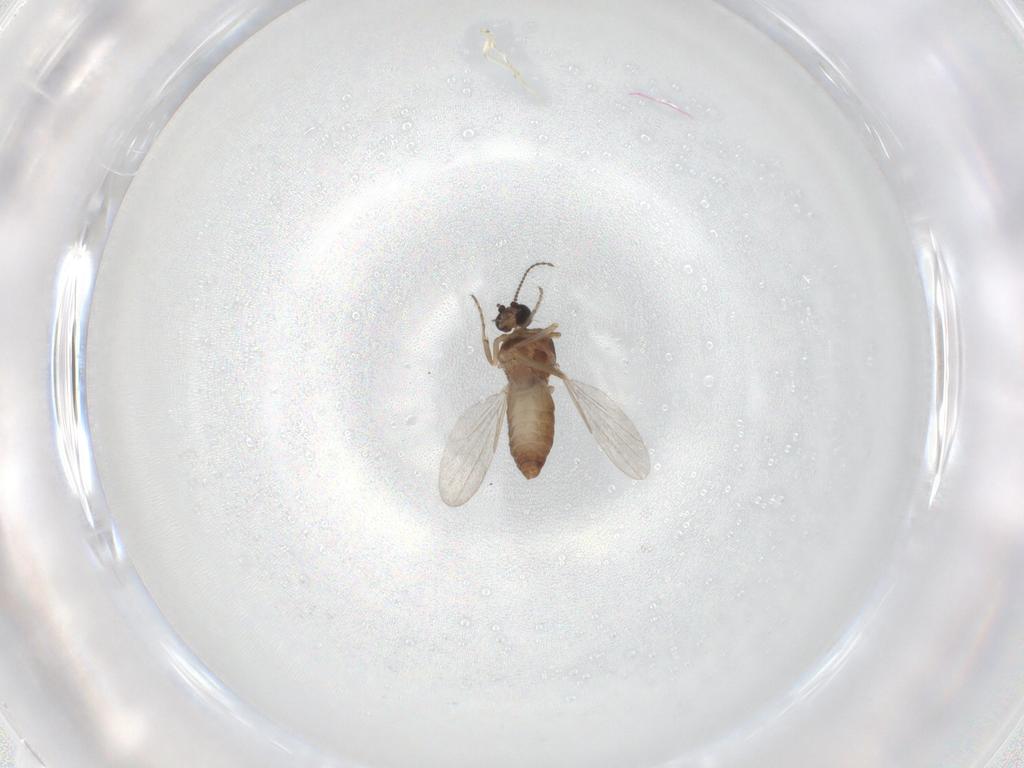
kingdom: Animalia
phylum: Arthropoda
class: Insecta
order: Diptera
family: Ceratopogonidae
